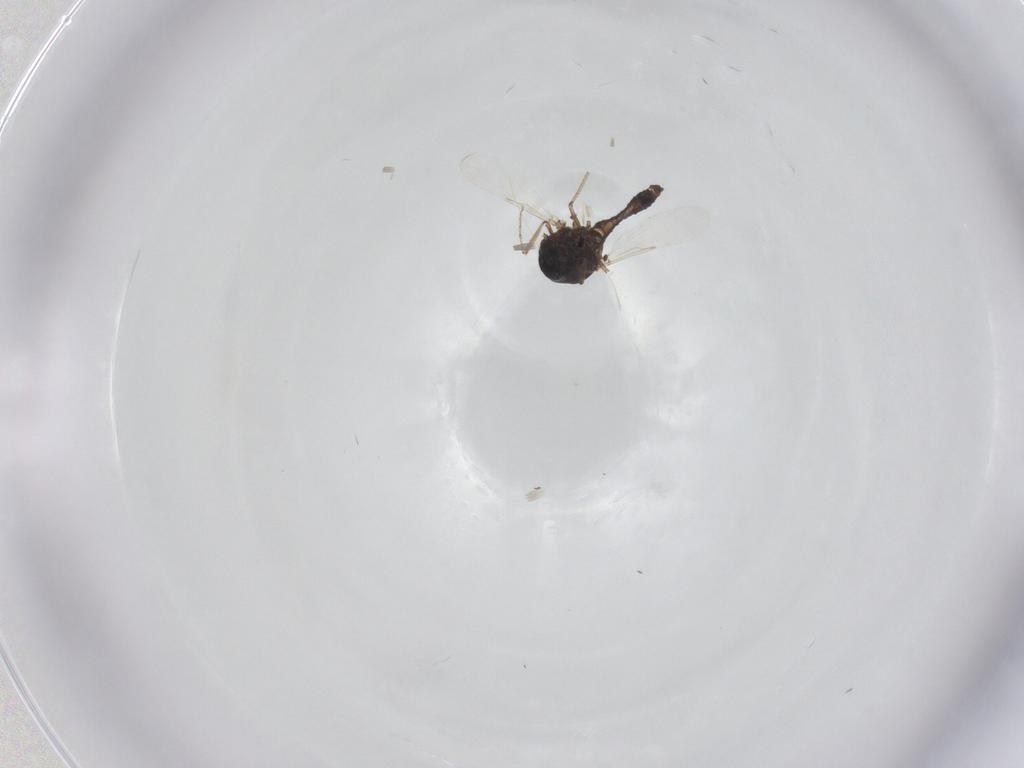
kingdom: Animalia
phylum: Arthropoda
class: Insecta
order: Diptera
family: Ceratopogonidae
